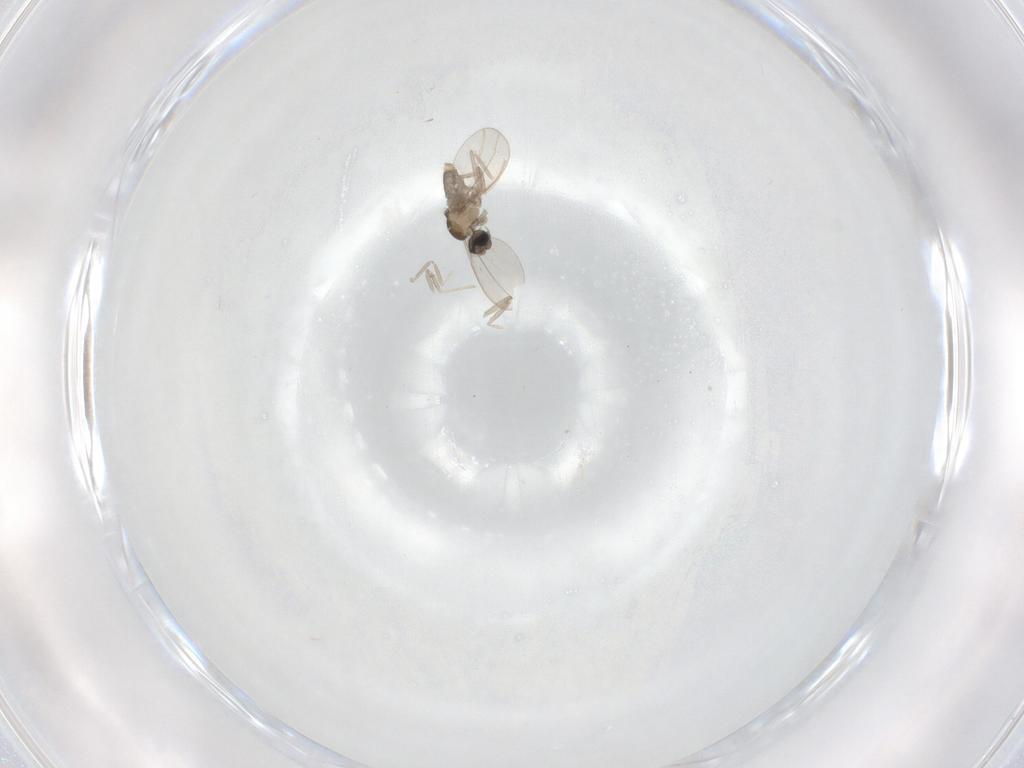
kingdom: Animalia
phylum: Arthropoda
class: Insecta
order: Diptera
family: Cecidomyiidae
